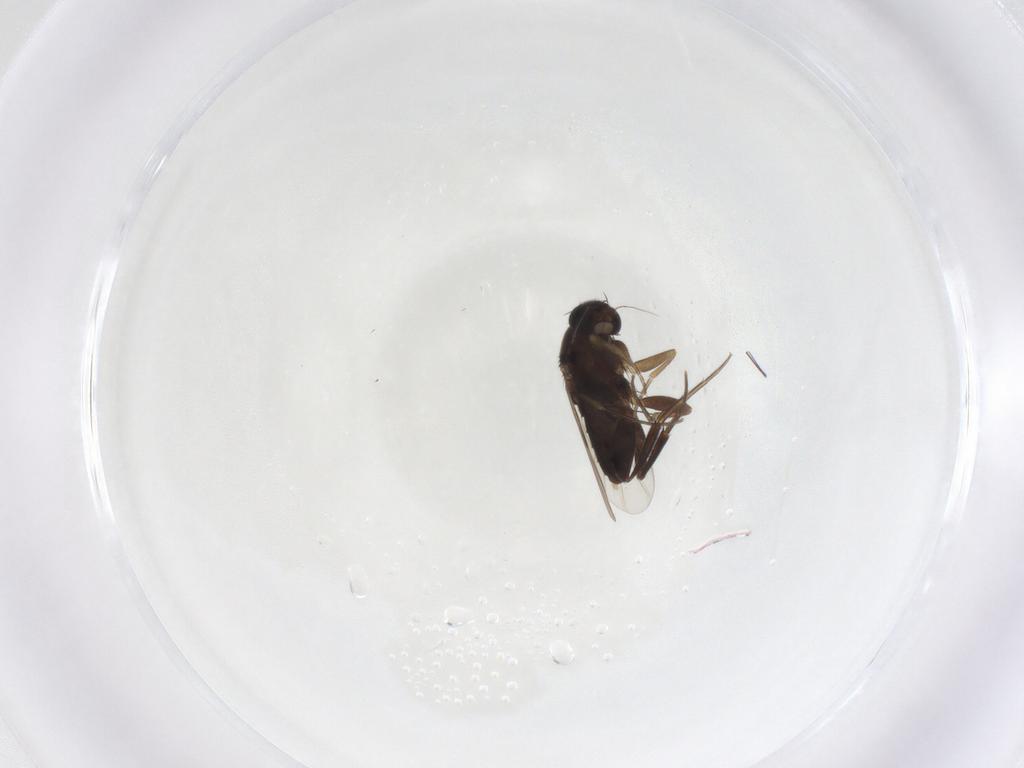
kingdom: Animalia
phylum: Arthropoda
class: Insecta
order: Diptera
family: Phoridae
